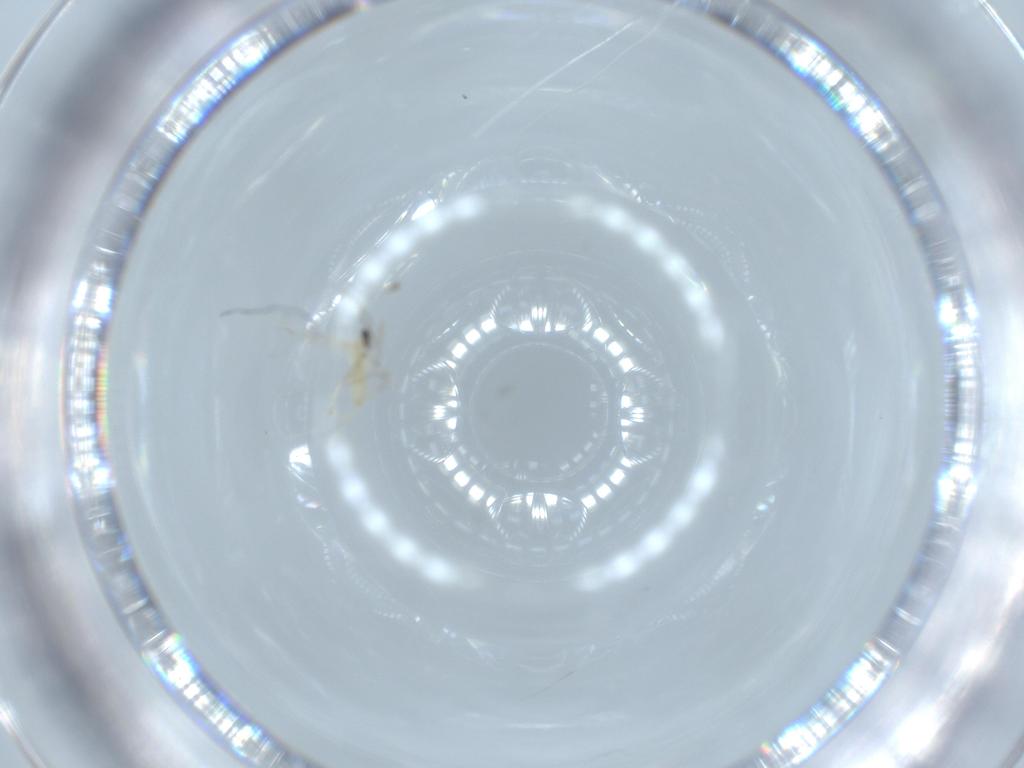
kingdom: Animalia
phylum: Arthropoda
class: Insecta
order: Diptera
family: Cecidomyiidae
